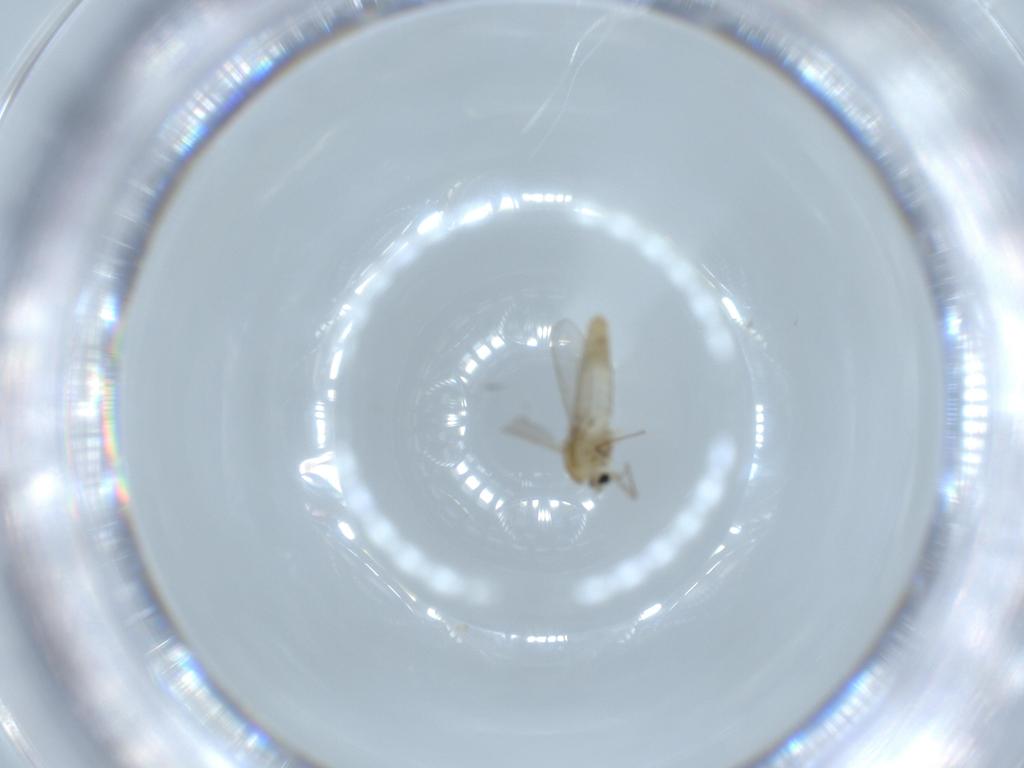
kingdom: Animalia
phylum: Arthropoda
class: Insecta
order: Diptera
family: Chironomidae
